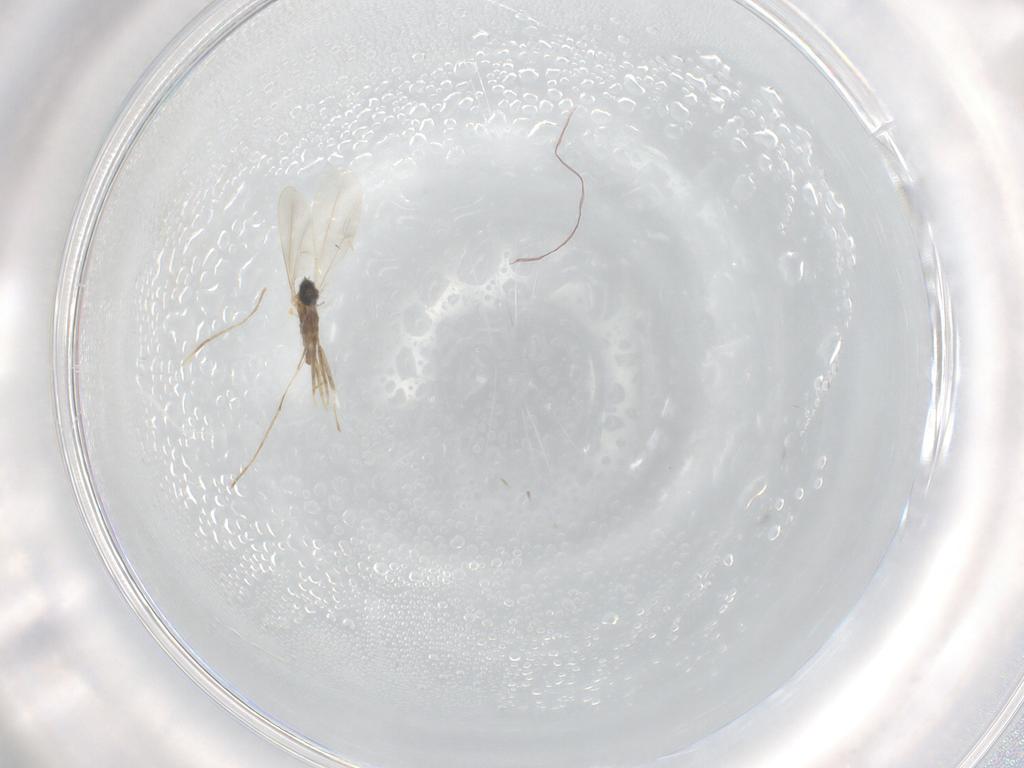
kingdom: Animalia
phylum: Arthropoda
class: Insecta
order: Diptera
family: Cecidomyiidae
